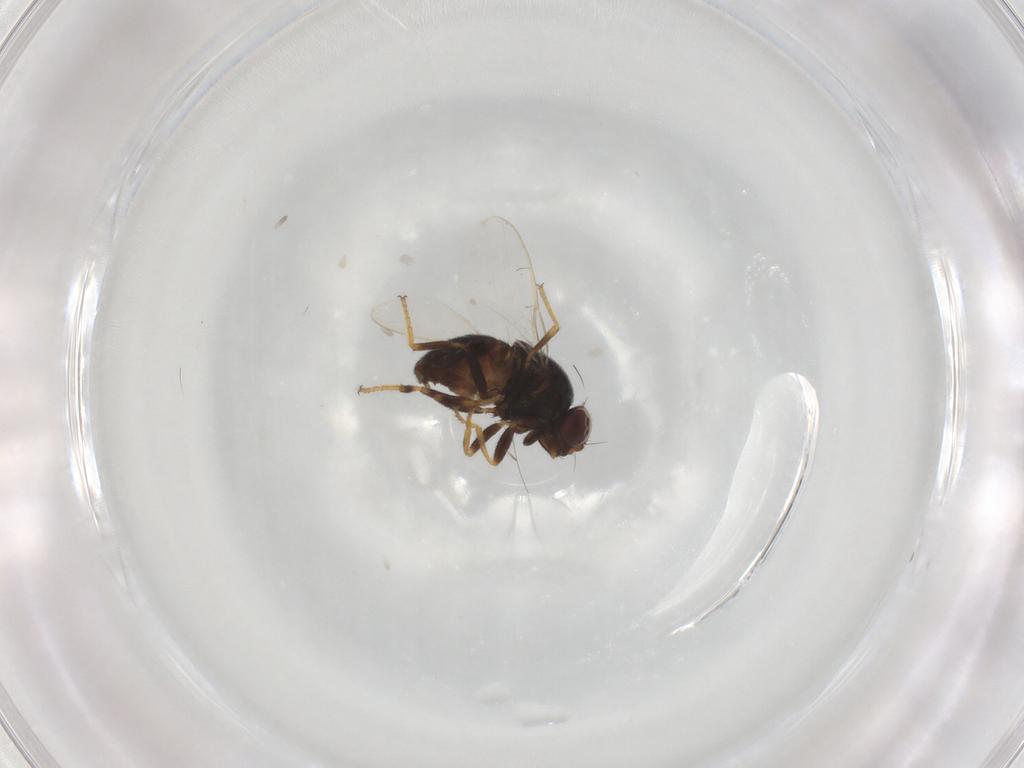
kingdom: Animalia
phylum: Arthropoda
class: Insecta
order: Diptera
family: Chloropidae
